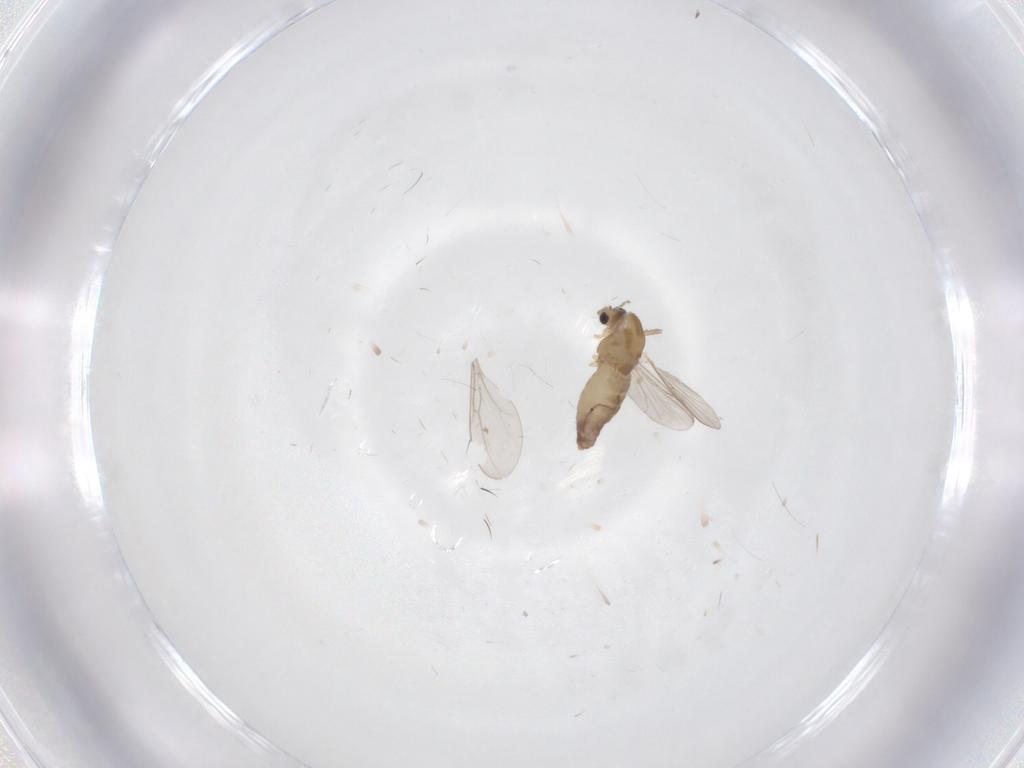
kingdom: Animalia
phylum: Arthropoda
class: Insecta
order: Diptera
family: Chironomidae
